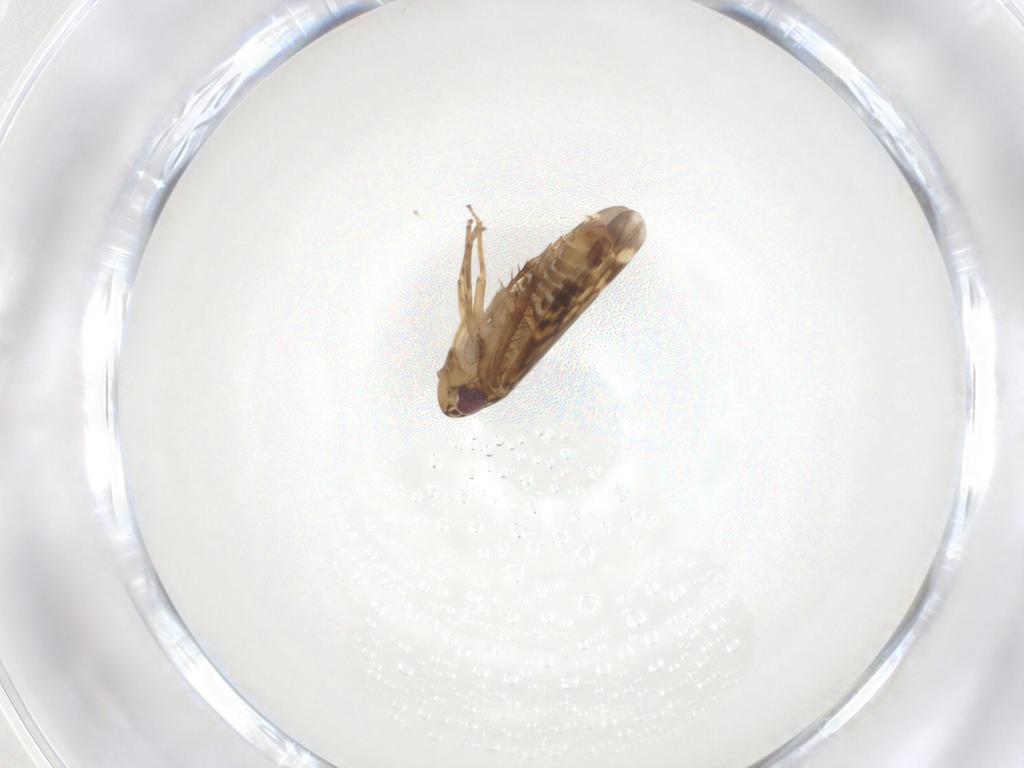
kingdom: Animalia
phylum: Arthropoda
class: Insecta
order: Hemiptera
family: Cicadellidae
